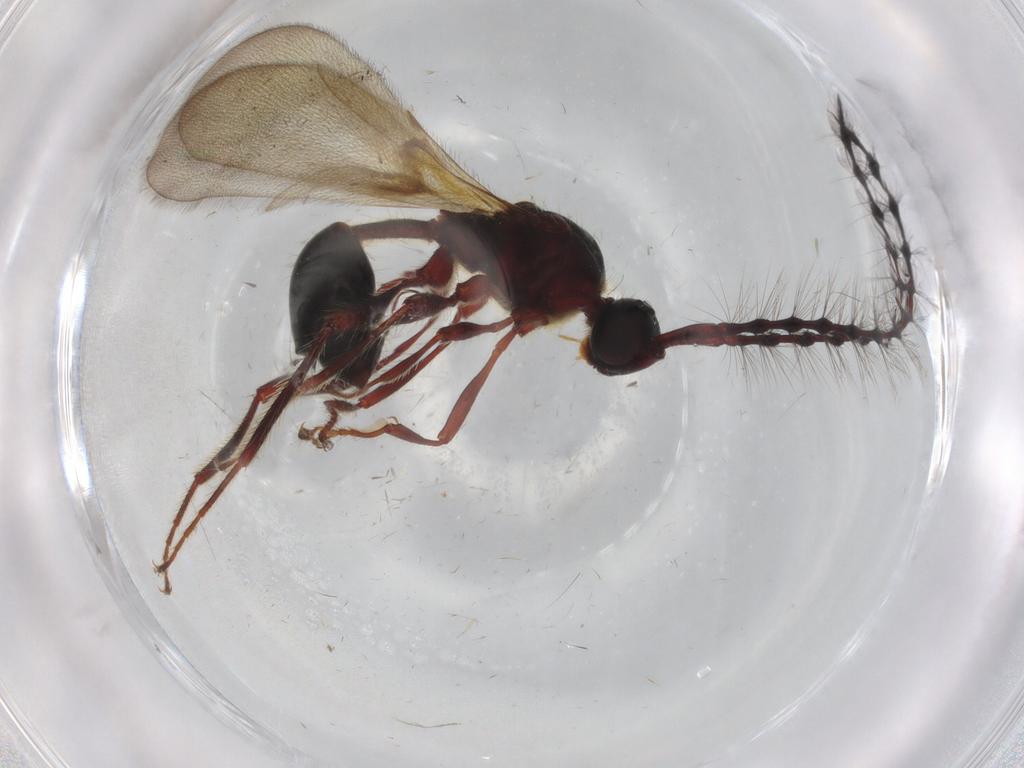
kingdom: Animalia
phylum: Arthropoda
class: Insecta
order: Hymenoptera
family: Diapriidae
